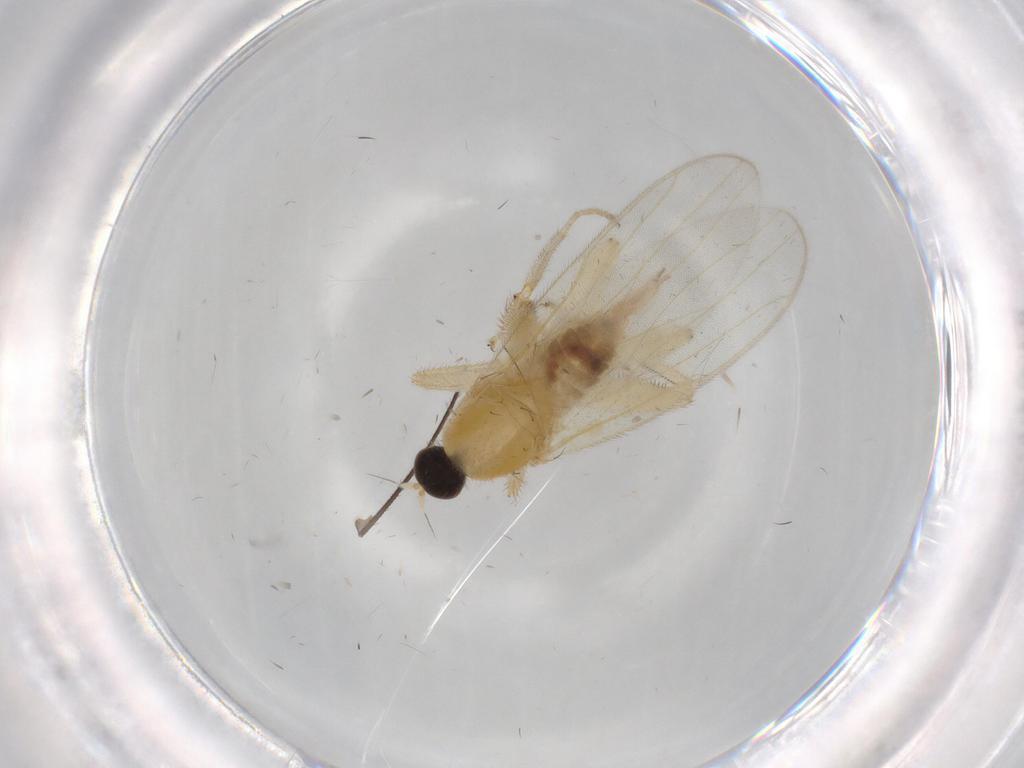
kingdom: Animalia
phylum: Arthropoda
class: Insecta
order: Diptera
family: Hybotidae
